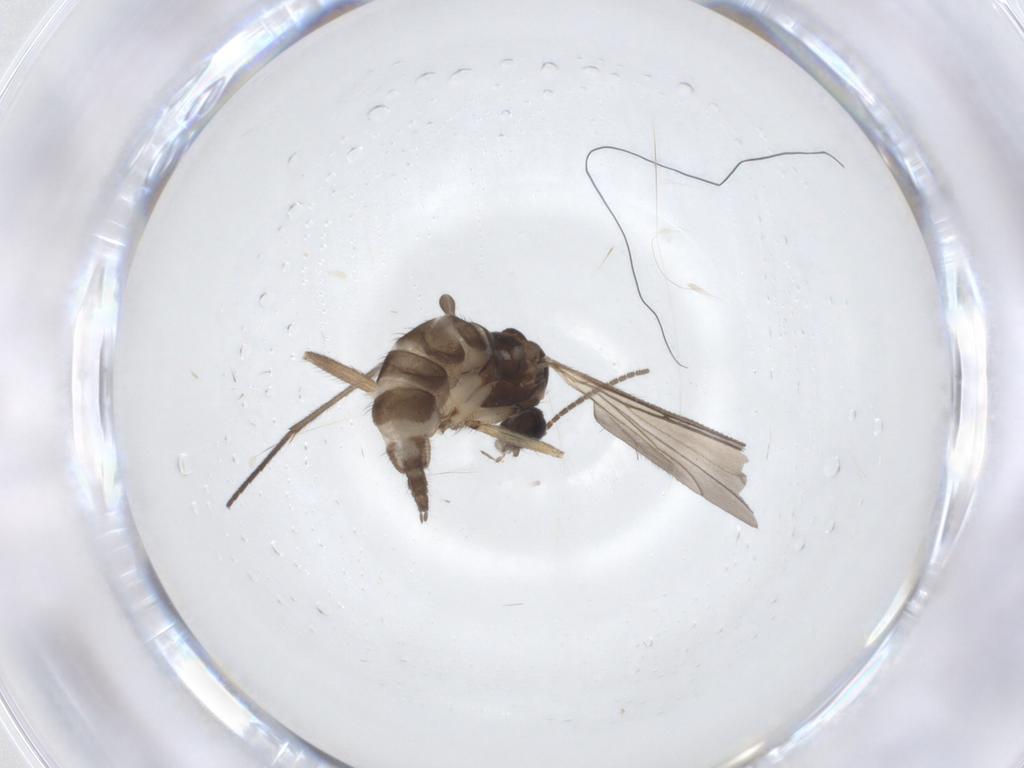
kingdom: Animalia
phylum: Arthropoda
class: Insecta
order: Diptera
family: Sciaridae
